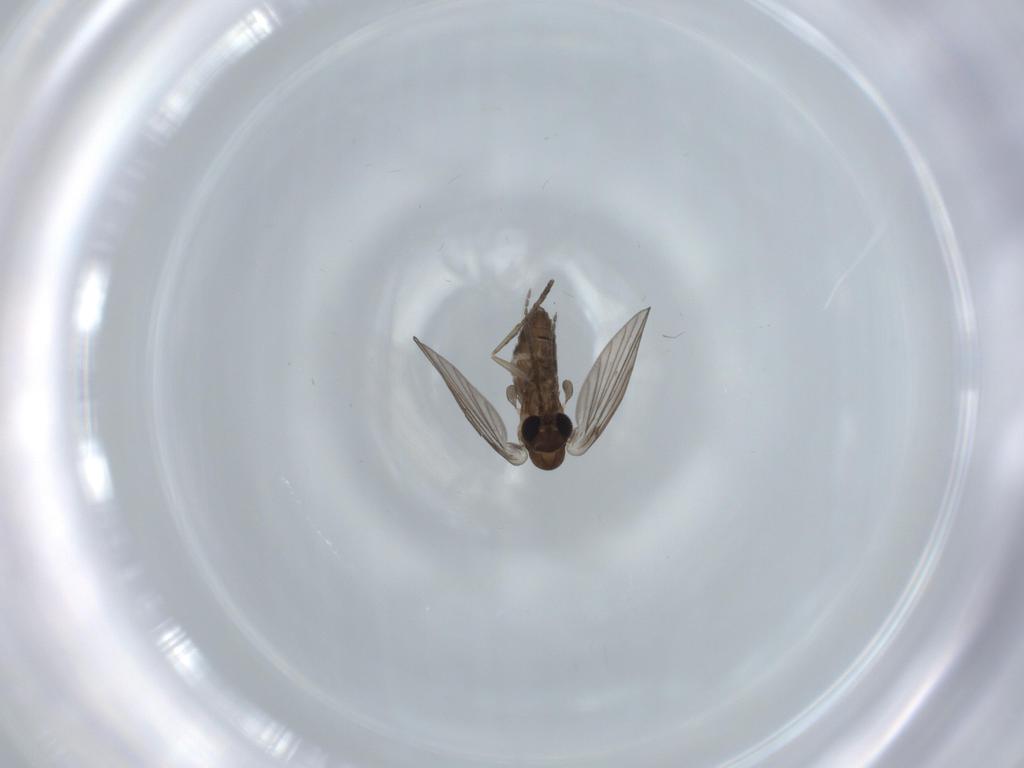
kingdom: Animalia
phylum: Arthropoda
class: Insecta
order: Diptera
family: Psychodidae
